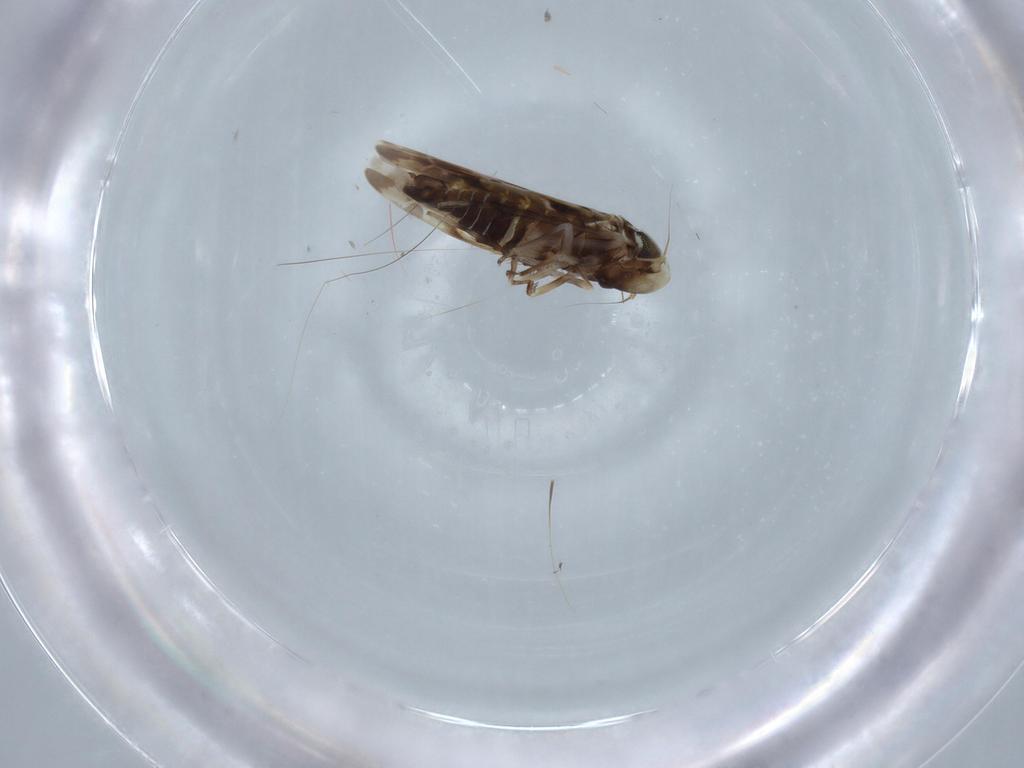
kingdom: Animalia
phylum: Arthropoda
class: Insecta
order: Hemiptera
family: Cicadellidae
